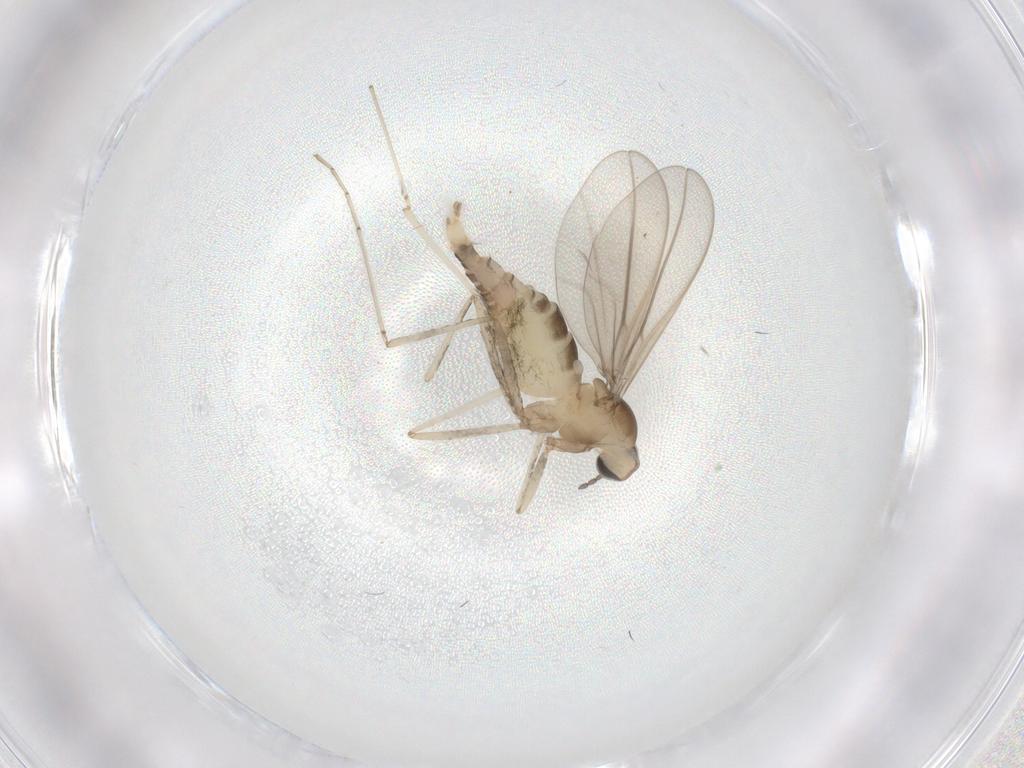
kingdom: Animalia
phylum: Arthropoda
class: Insecta
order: Diptera
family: Cecidomyiidae
